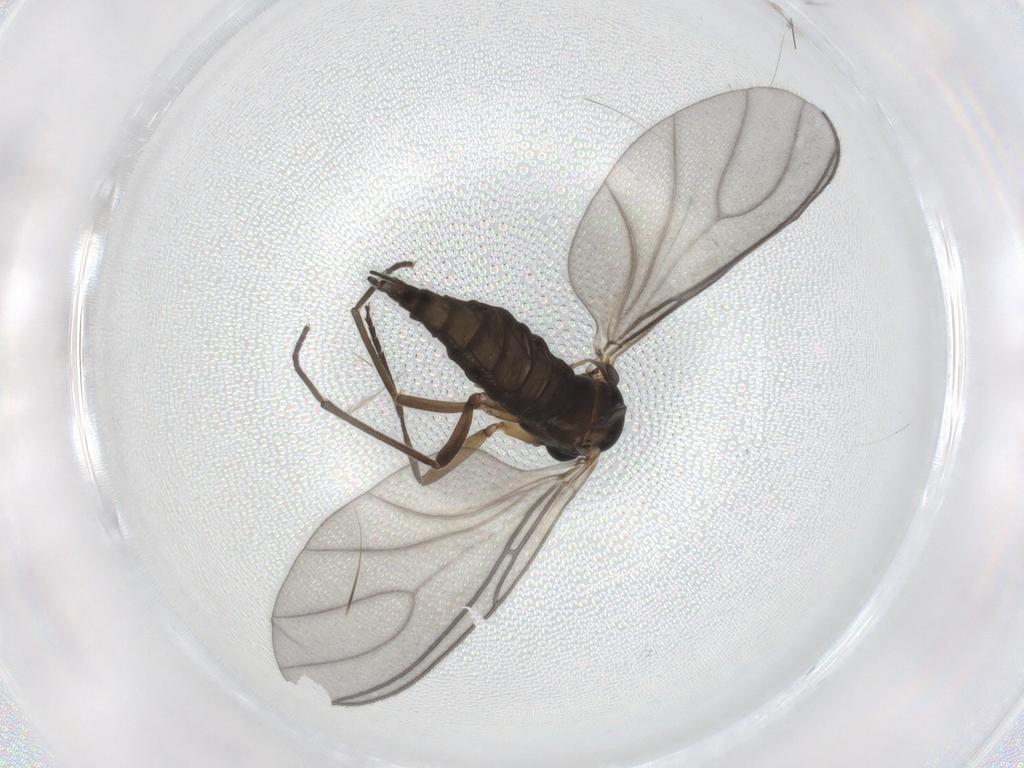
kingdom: Animalia
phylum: Arthropoda
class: Insecta
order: Diptera
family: Sciaridae
